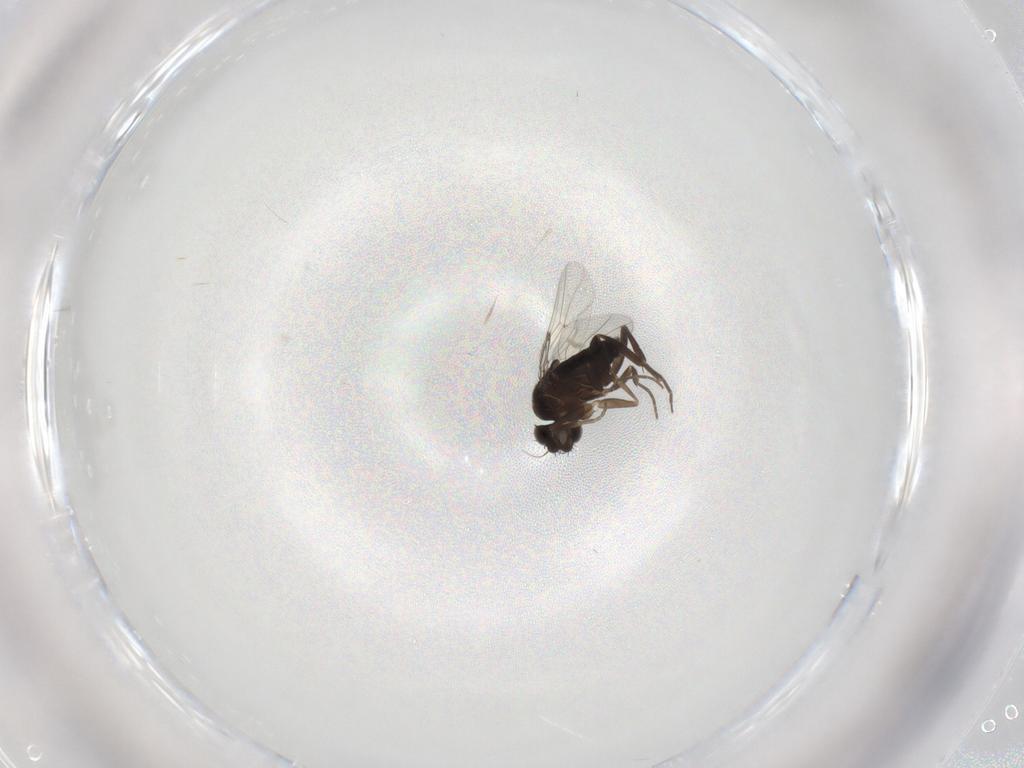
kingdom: Animalia
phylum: Arthropoda
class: Insecta
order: Diptera
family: Phoridae
